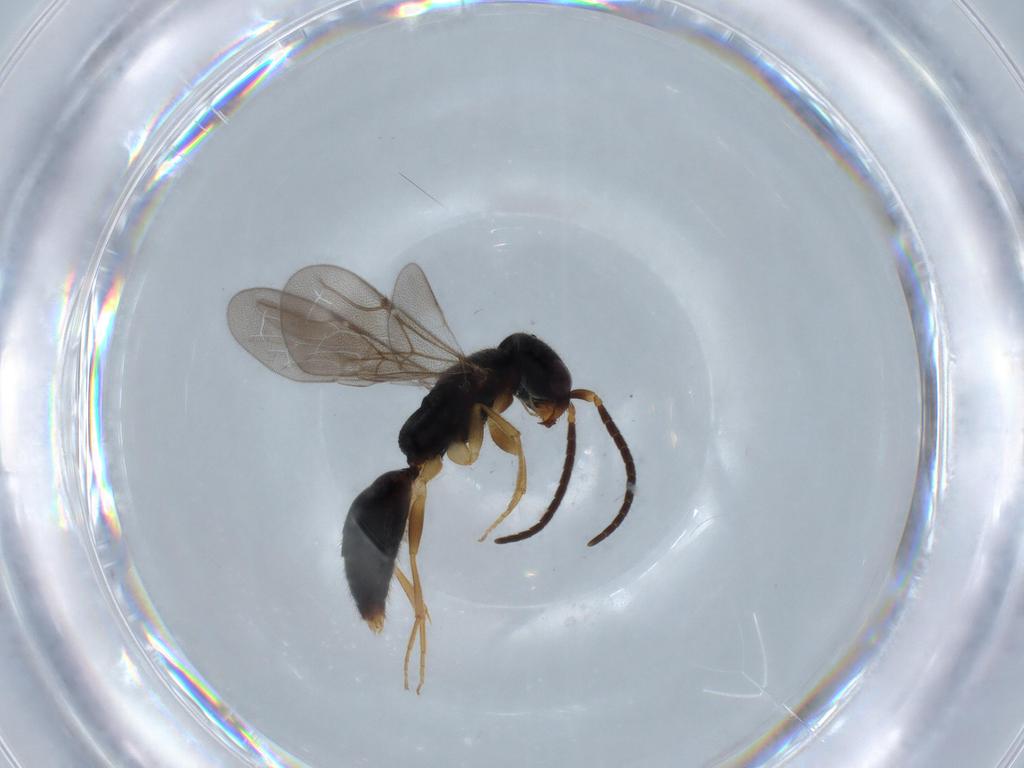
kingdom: Animalia
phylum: Arthropoda
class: Insecta
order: Hymenoptera
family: Bethylidae
